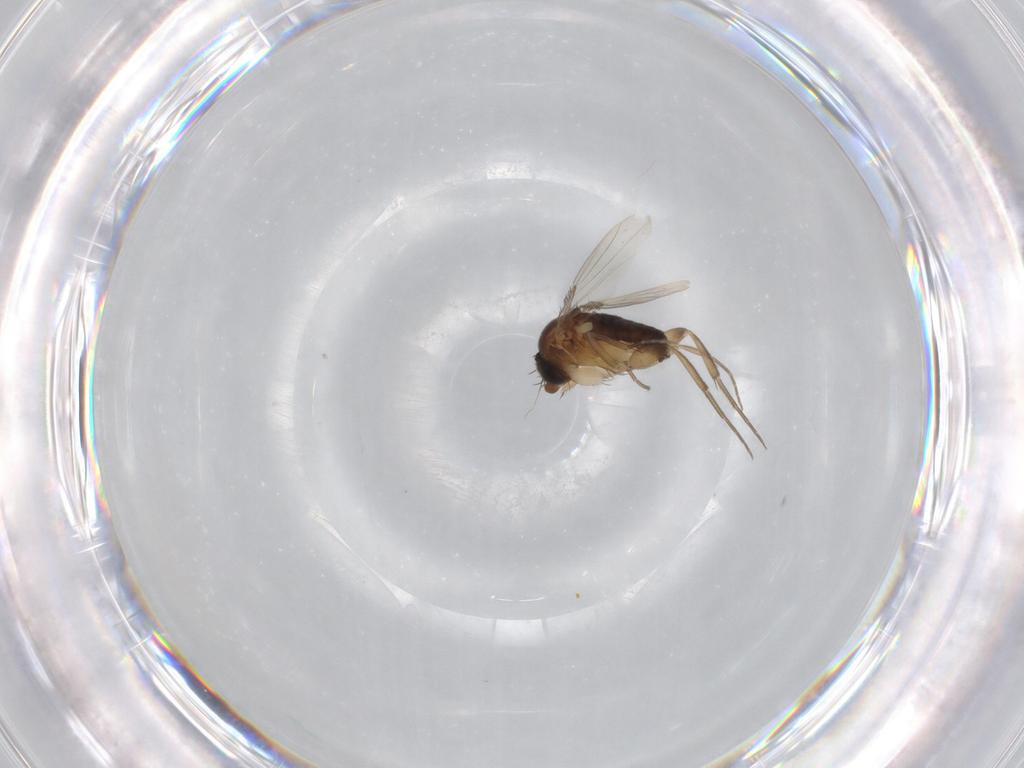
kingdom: Animalia
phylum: Arthropoda
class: Insecta
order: Diptera
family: Phoridae
